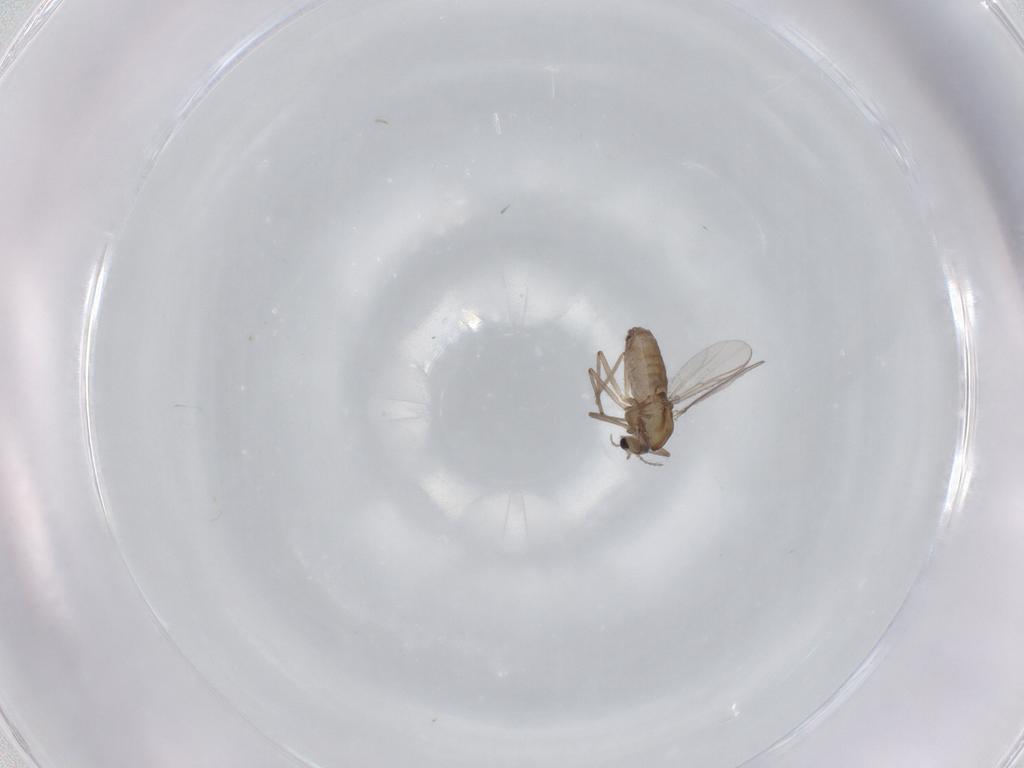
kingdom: Animalia
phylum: Arthropoda
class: Insecta
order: Diptera
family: Chironomidae
